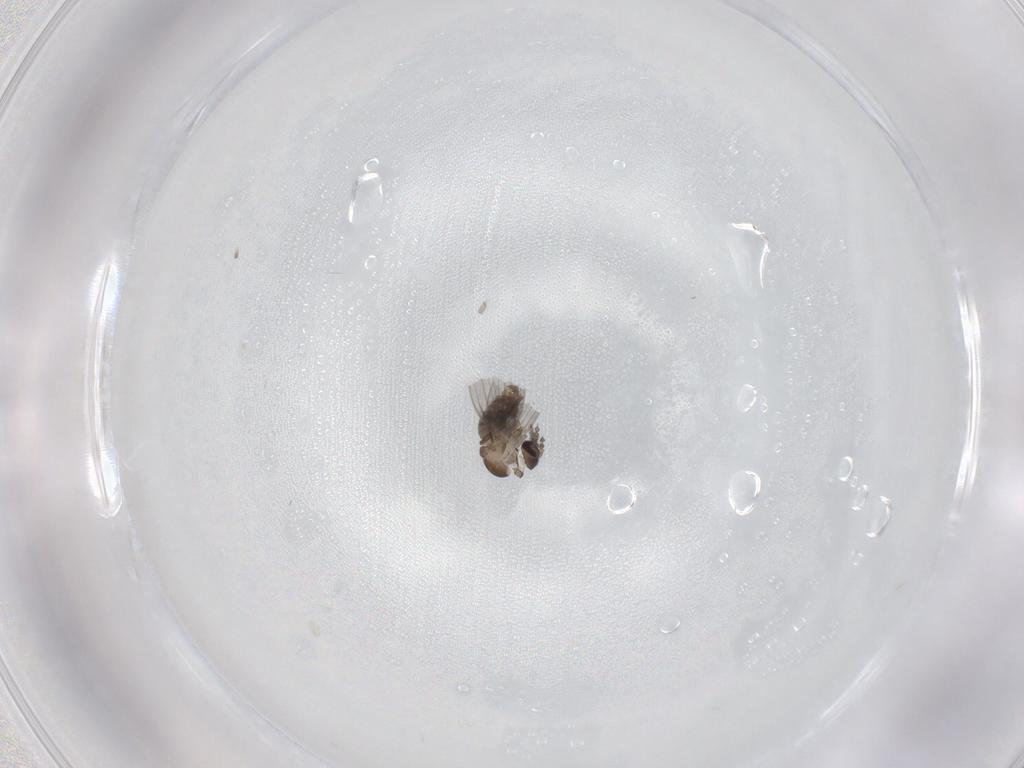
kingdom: Animalia
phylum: Arthropoda
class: Insecta
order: Diptera
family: Psychodidae
